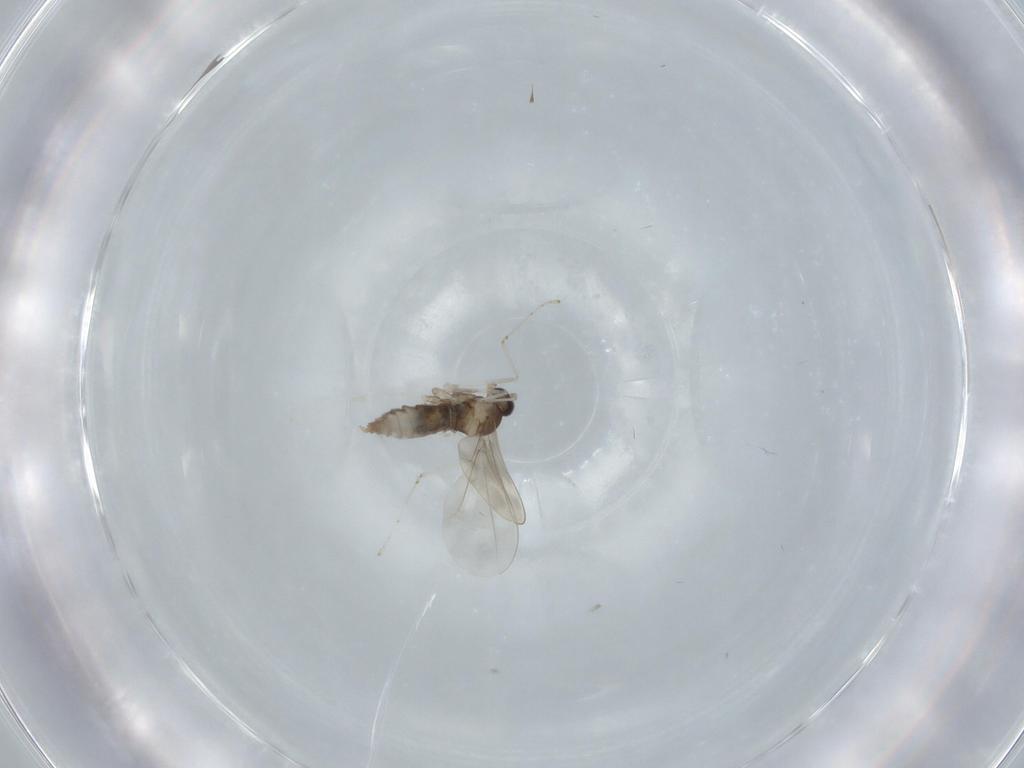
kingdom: Animalia
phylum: Arthropoda
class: Insecta
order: Diptera
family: Cecidomyiidae
